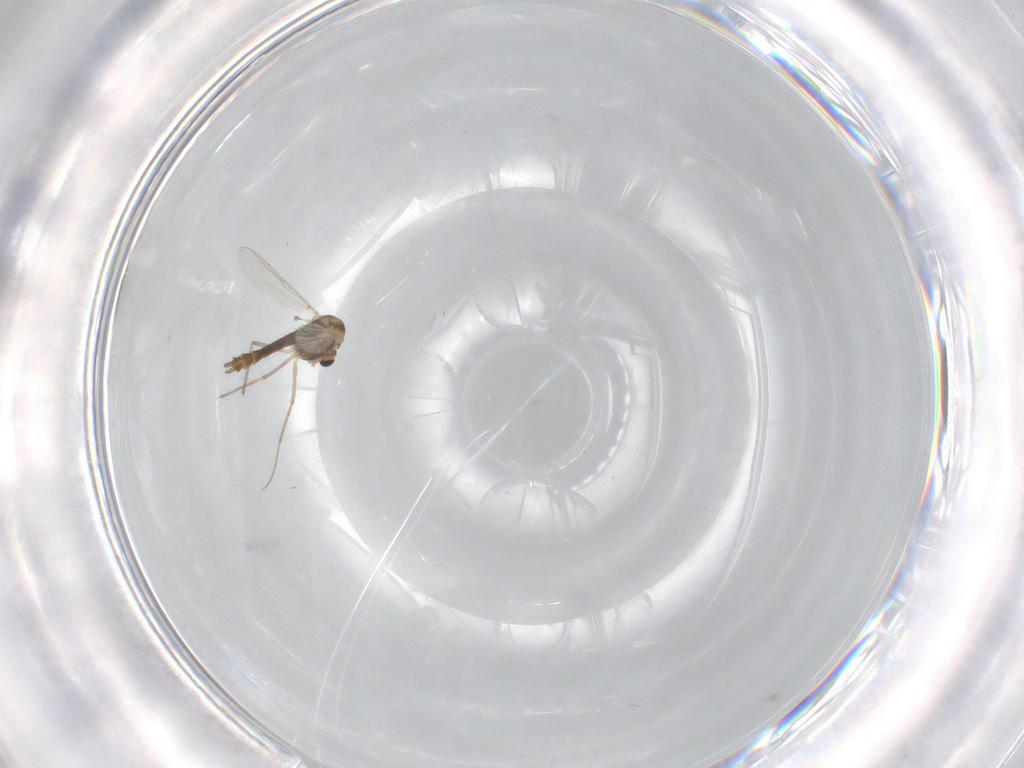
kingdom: Animalia
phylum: Arthropoda
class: Insecta
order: Diptera
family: Chironomidae
